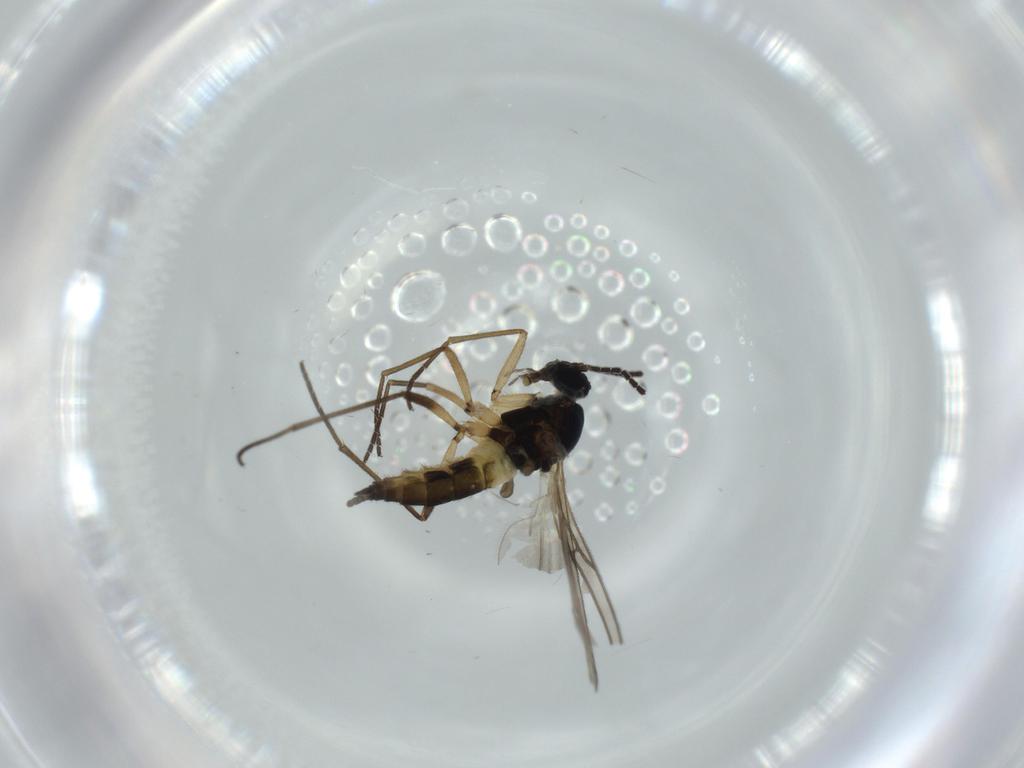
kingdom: Animalia
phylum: Arthropoda
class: Insecta
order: Diptera
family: Sciaridae
